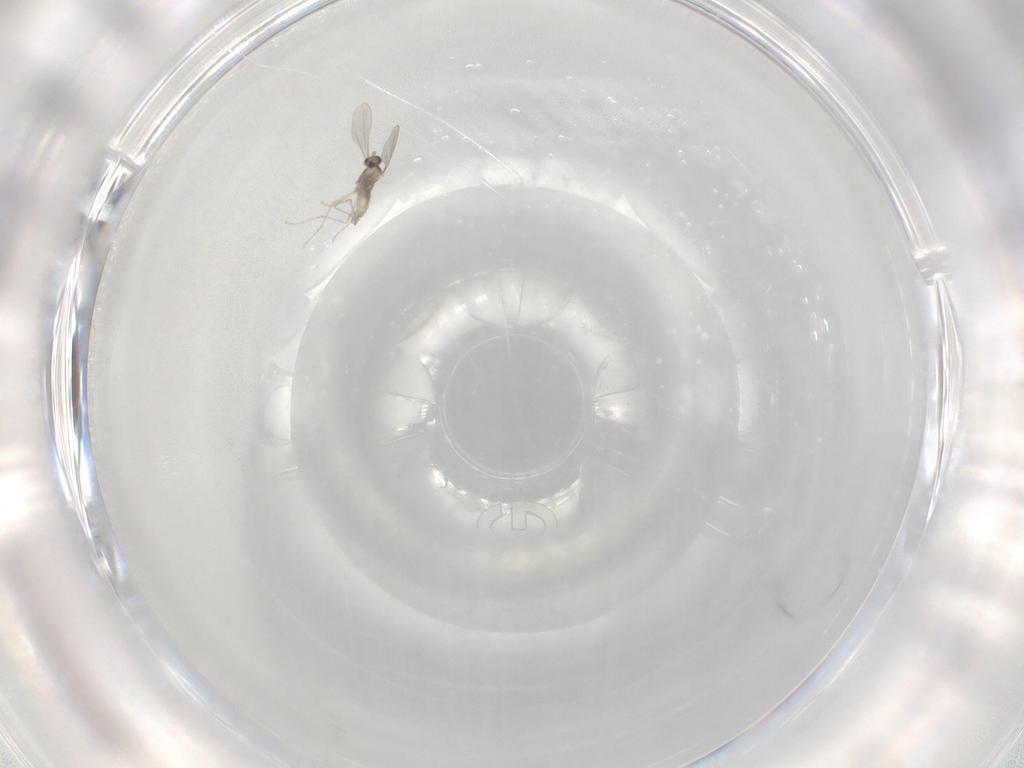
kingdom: Animalia
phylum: Arthropoda
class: Insecta
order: Diptera
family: Cecidomyiidae
